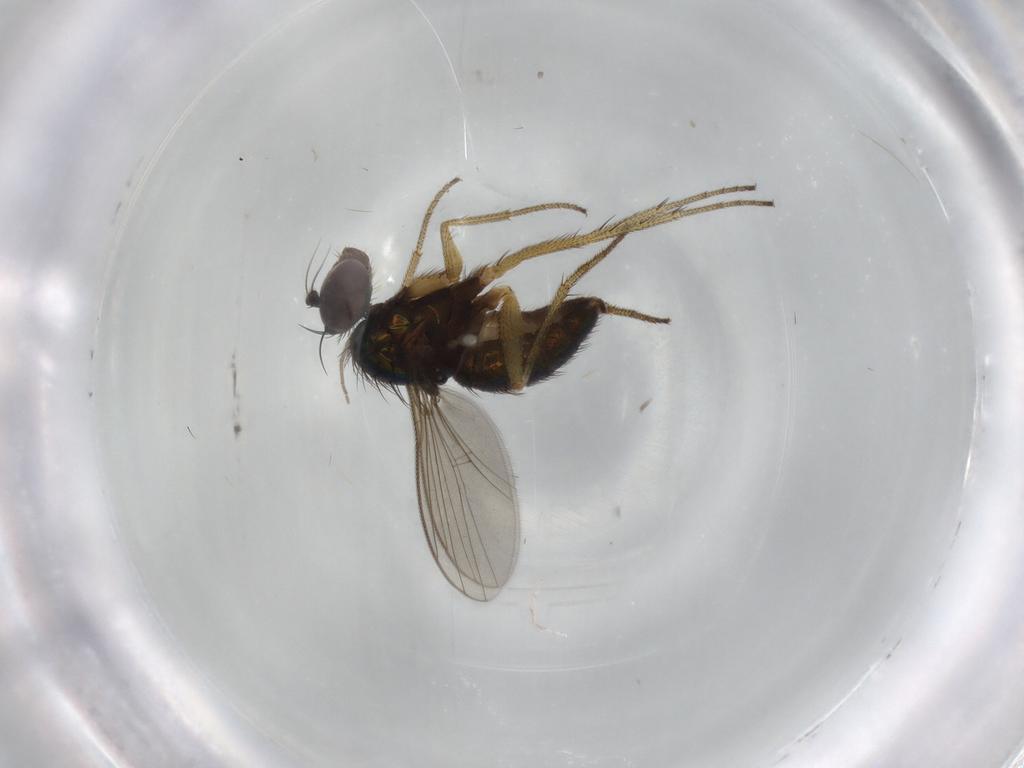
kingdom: Animalia
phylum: Arthropoda
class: Insecta
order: Diptera
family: Dolichopodidae
